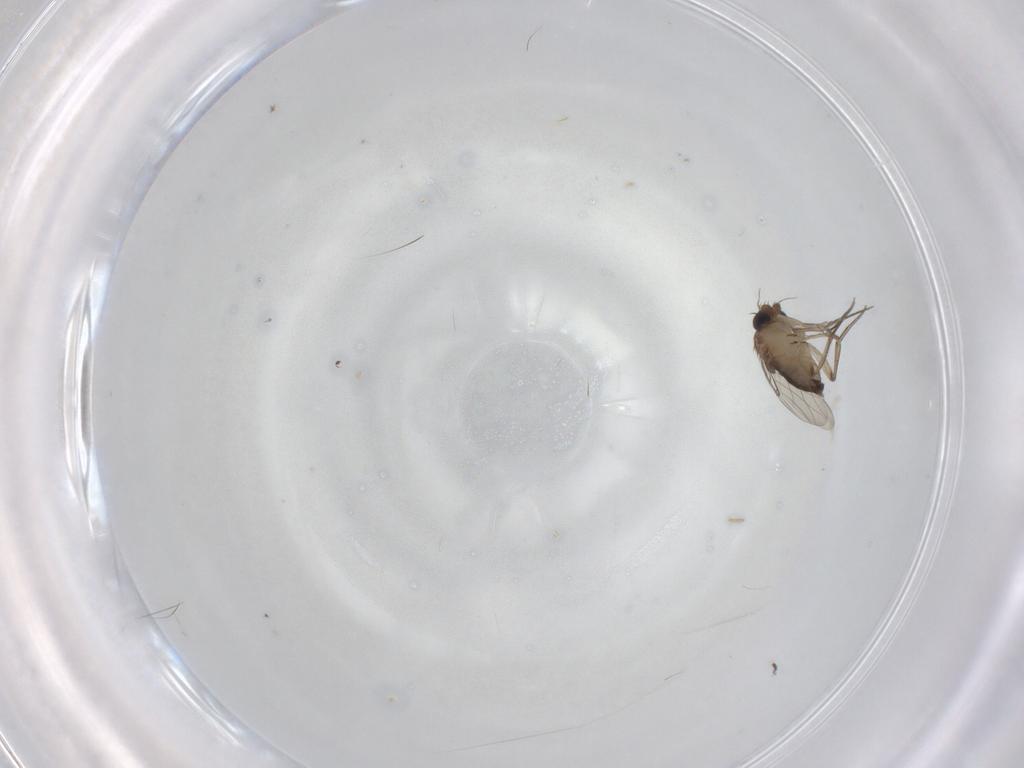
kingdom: Animalia
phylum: Arthropoda
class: Insecta
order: Diptera
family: Phoridae
